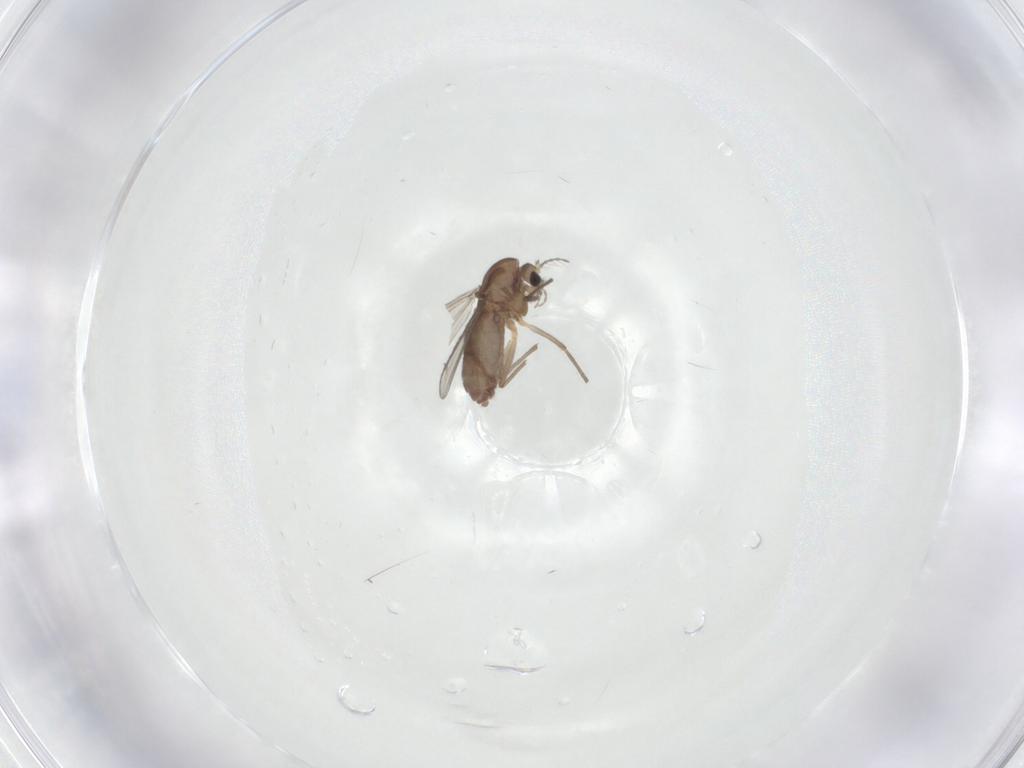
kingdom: Animalia
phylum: Arthropoda
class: Insecta
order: Diptera
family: Chironomidae
